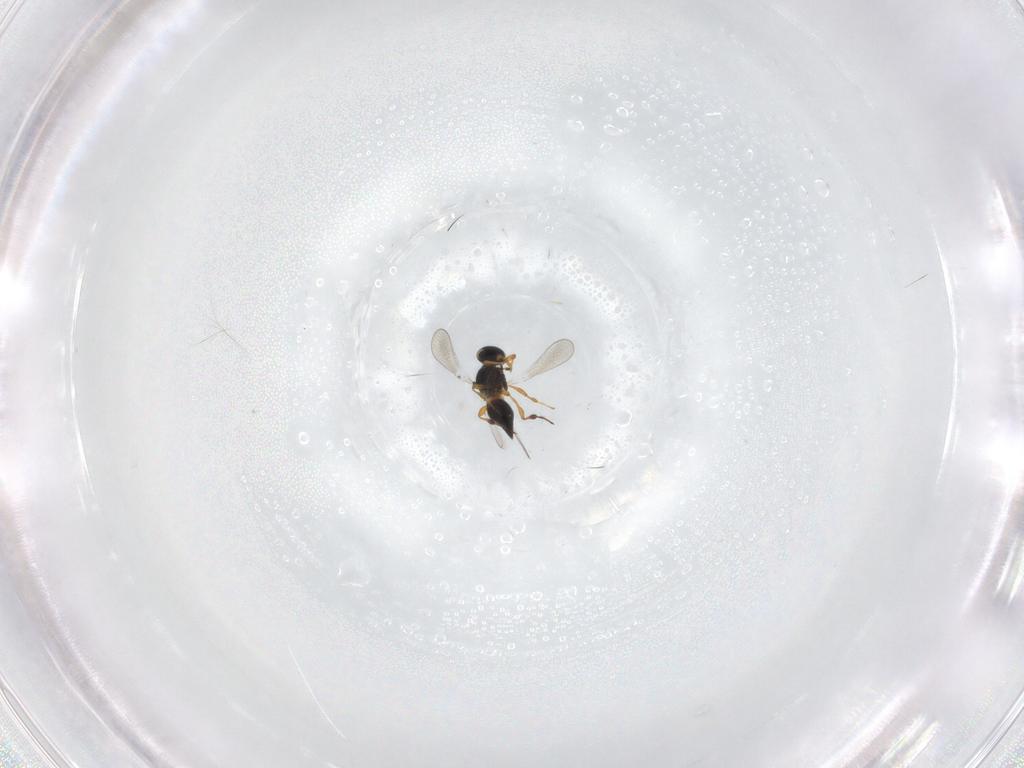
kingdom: Animalia
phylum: Arthropoda
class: Insecta
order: Hymenoptera
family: Platygastridae
